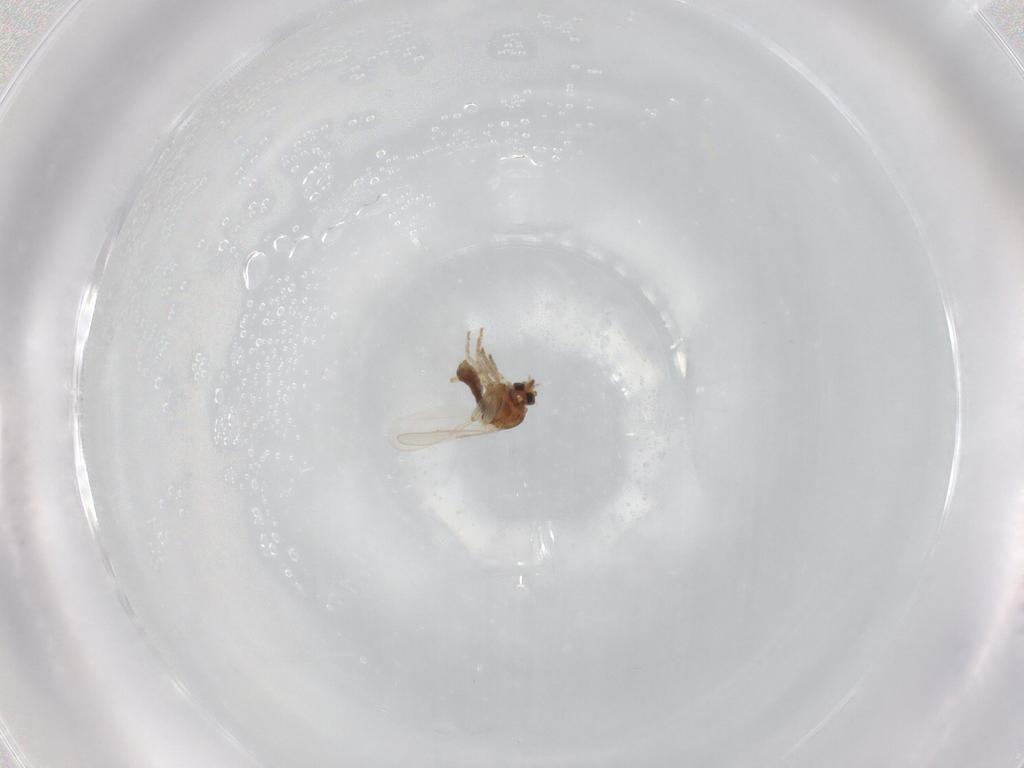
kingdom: Animalia
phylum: Arthropoda
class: Insecta
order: Diptera
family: Ceratopogonidae
